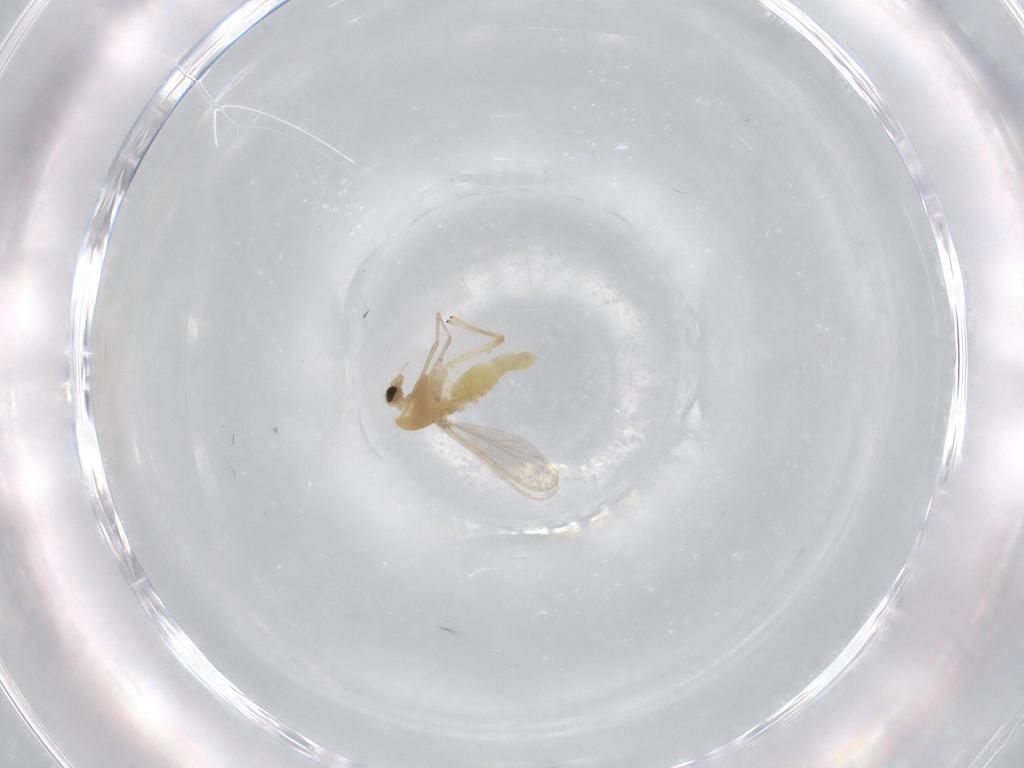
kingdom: Animalia
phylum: Arthropoda
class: Insecta
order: Diptera
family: Chironomidae
